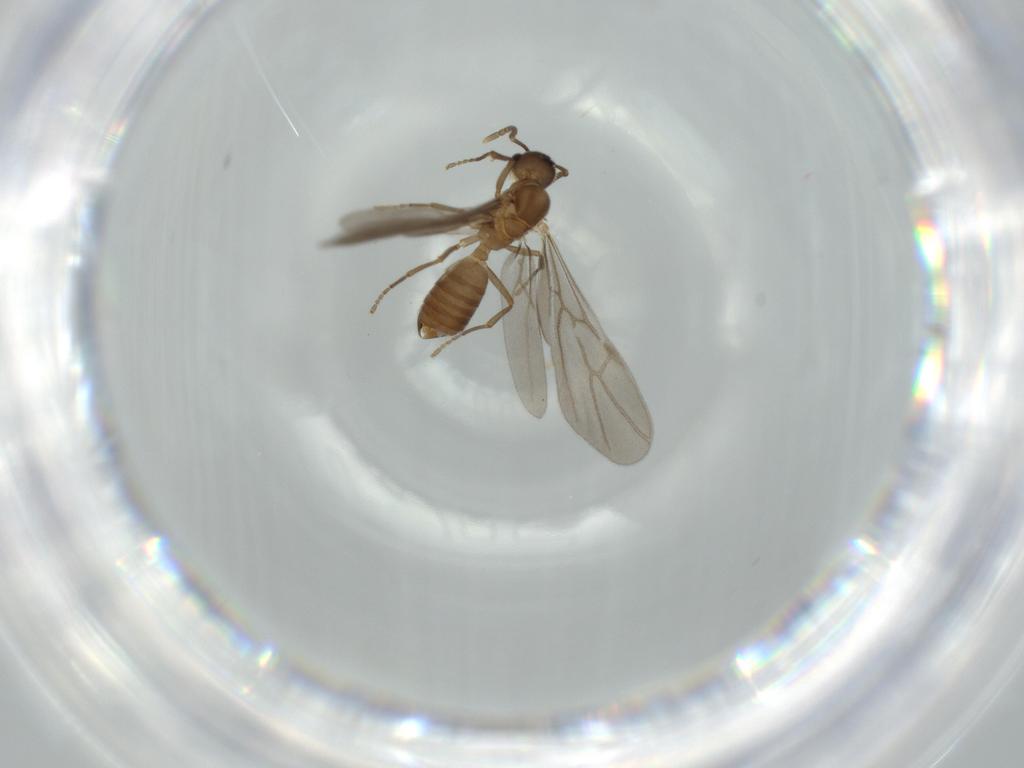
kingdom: Animalia
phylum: Arthropoda
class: Insecta
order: Hymenoptera
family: Formicidae
